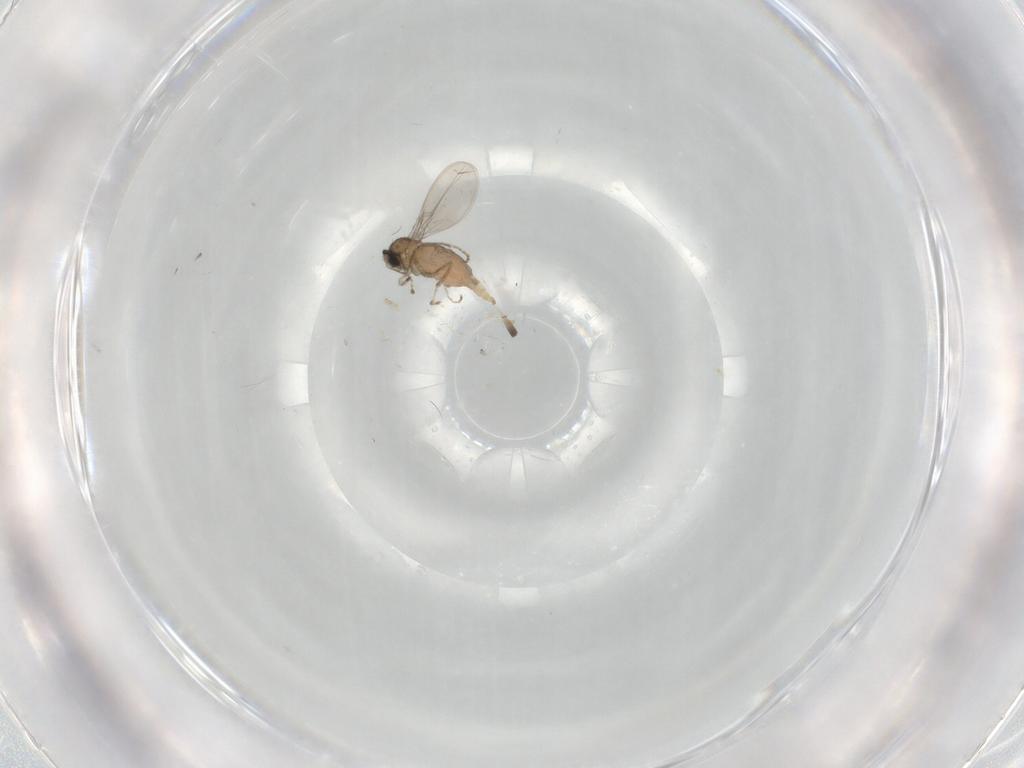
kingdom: Animalia
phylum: Arthropoda
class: Insecta
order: Diptera
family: Cecidomyiidae
